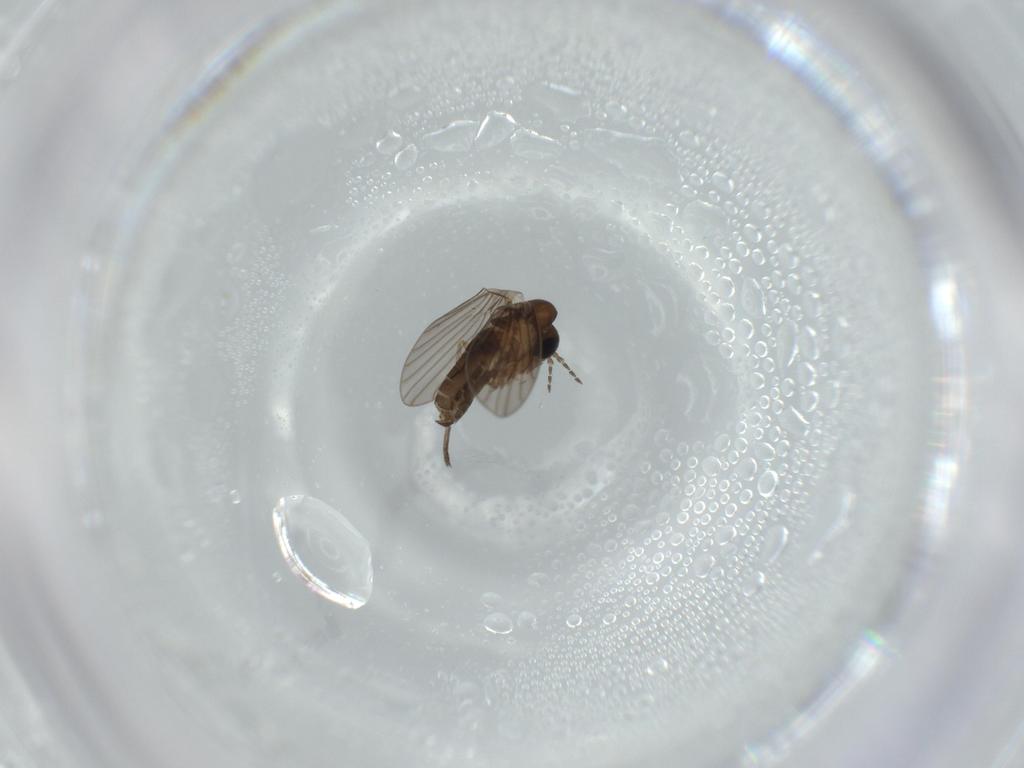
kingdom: Animalia
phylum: Arthropoda
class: Insecta
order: Diptera
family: Psychodidae
